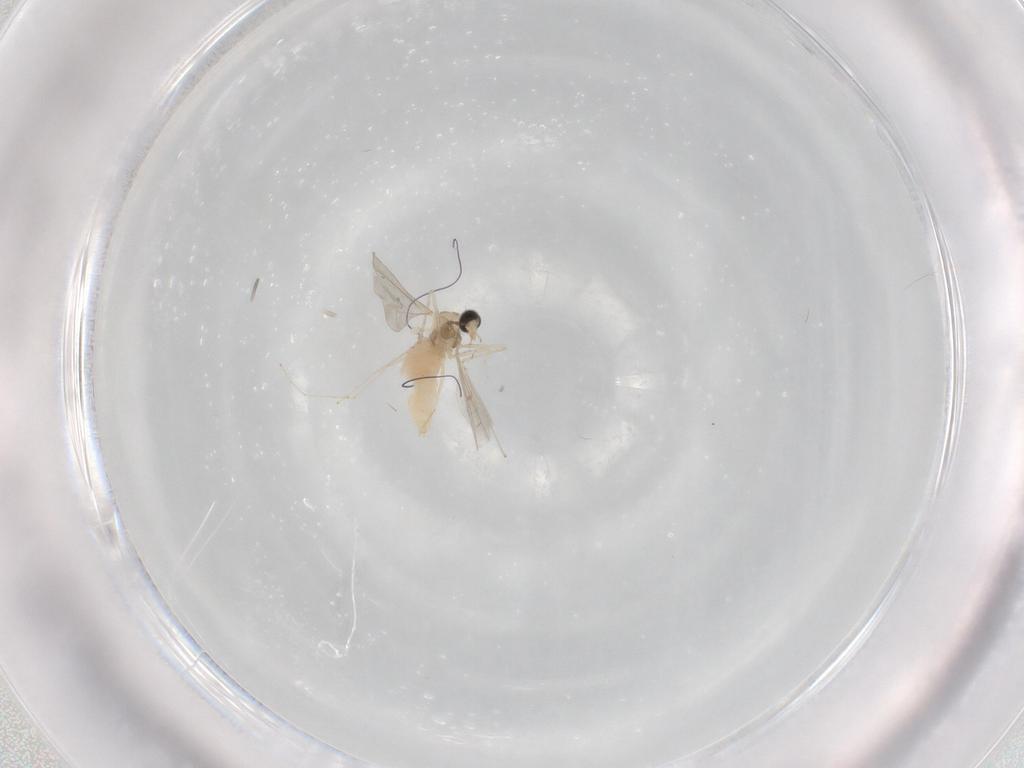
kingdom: Animalia
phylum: Arthropoda
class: Insecta
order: Diptera
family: Cecidomyiidae
